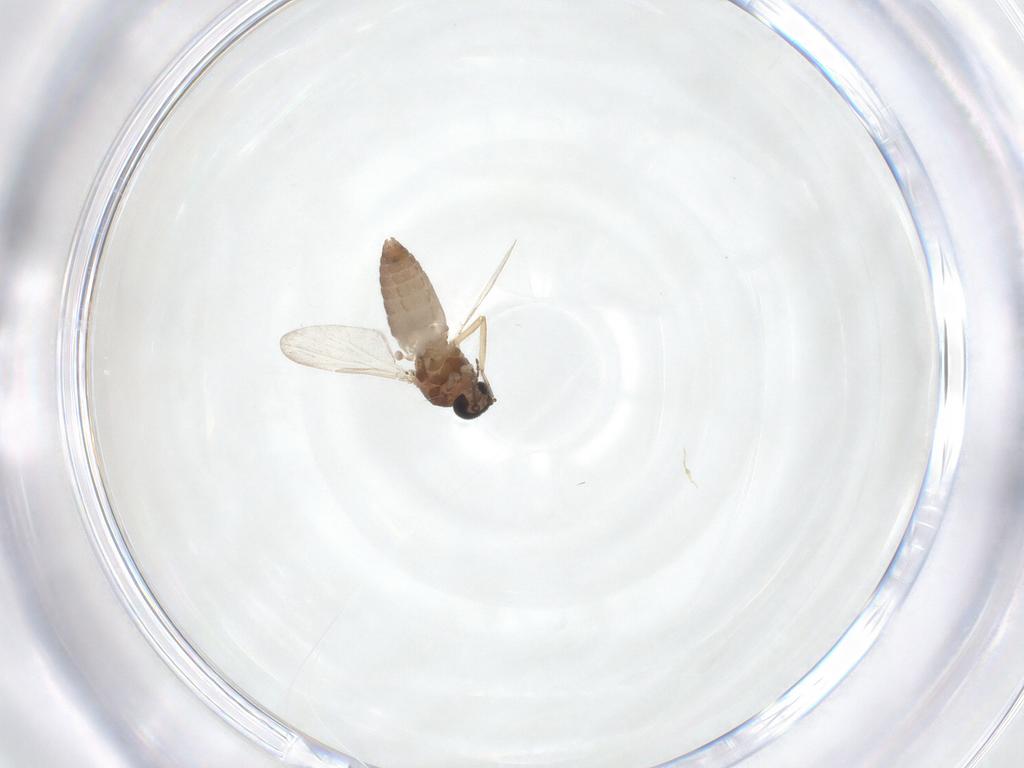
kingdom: Animalia
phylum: Arthropoda
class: Insecta
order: Diptera
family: Ceratopogonidae
